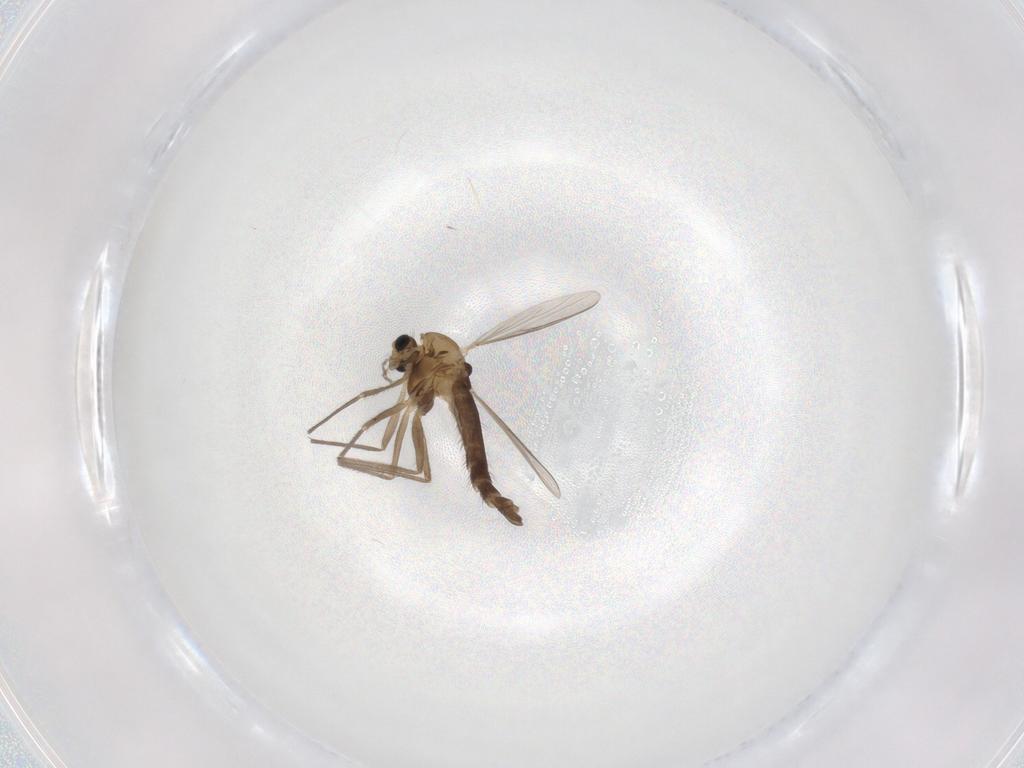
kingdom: Animalia
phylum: Arthropoda
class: Insecta
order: Diptera
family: Chironomidae
